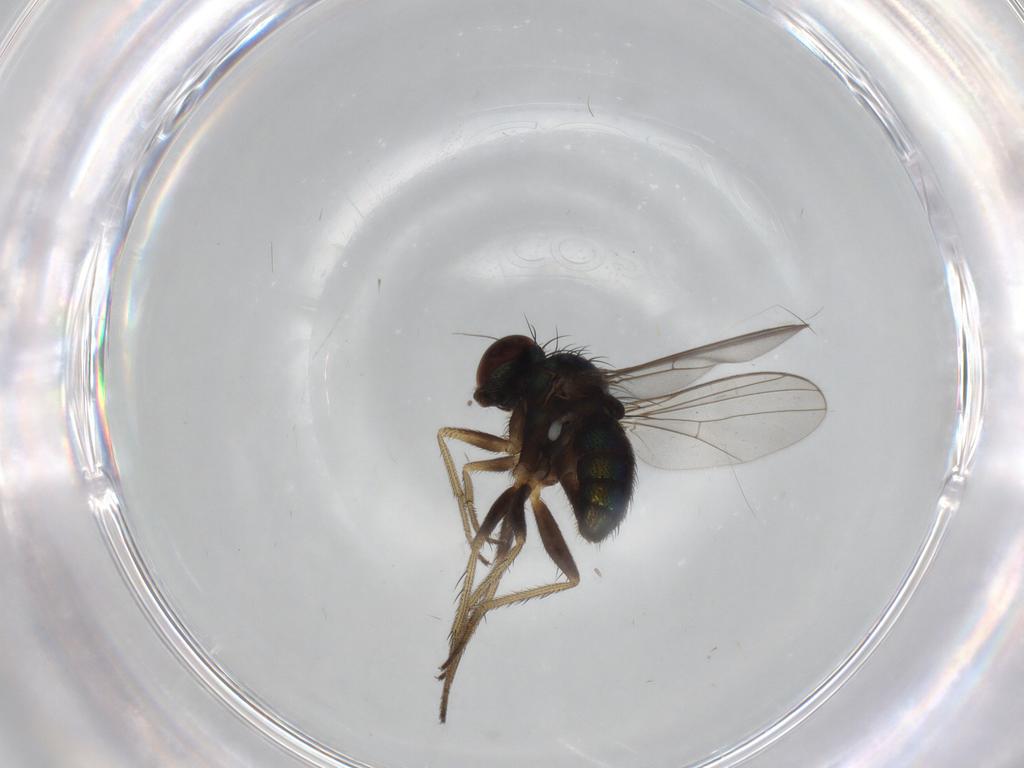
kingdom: Animalia
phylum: Arthropoda
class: Insecta
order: Diptera
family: Dolichopodidae
